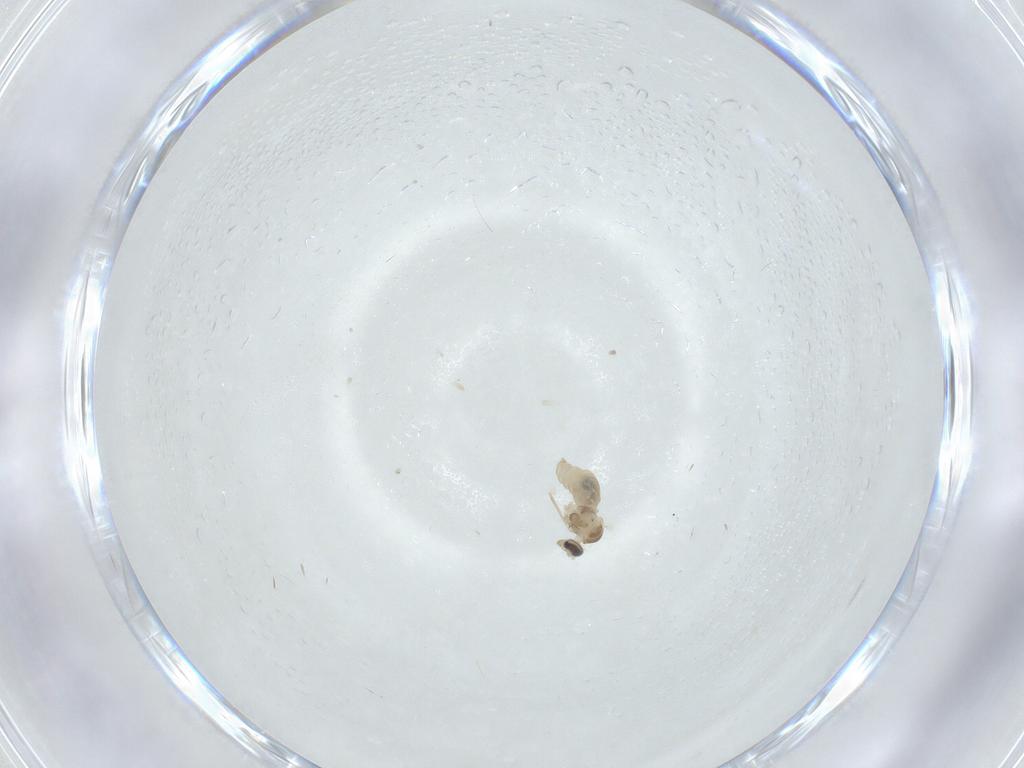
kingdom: Animalia
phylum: Arthropoda
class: Insecta
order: Diptera
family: Cecidomyiidae
